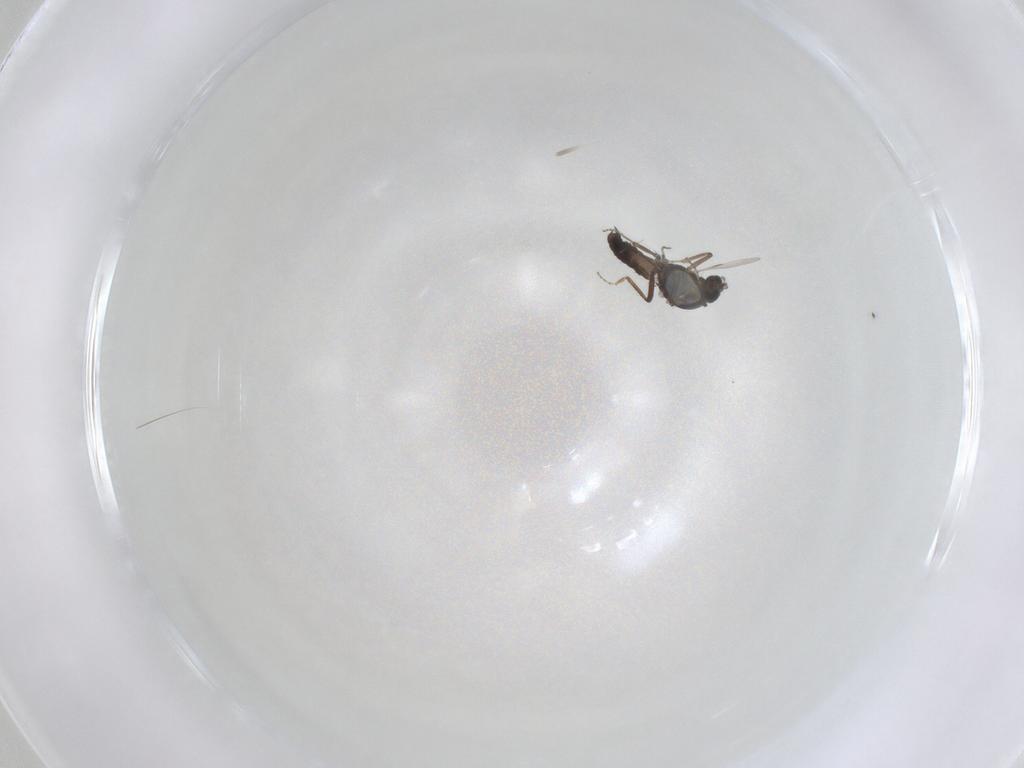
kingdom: Animalia
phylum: Arthropoda
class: Insecta
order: Diptera
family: Ceratopogonidae
